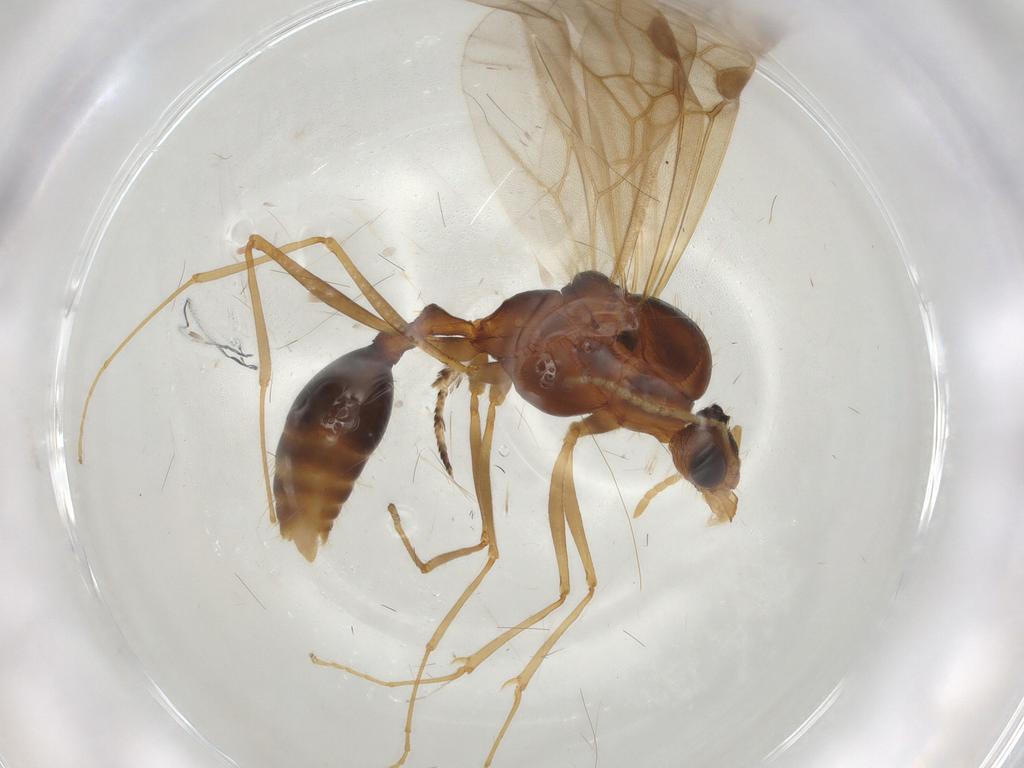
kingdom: Animalia
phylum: Arthropoda
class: Insecta
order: Hymenoptera
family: Formicidae
